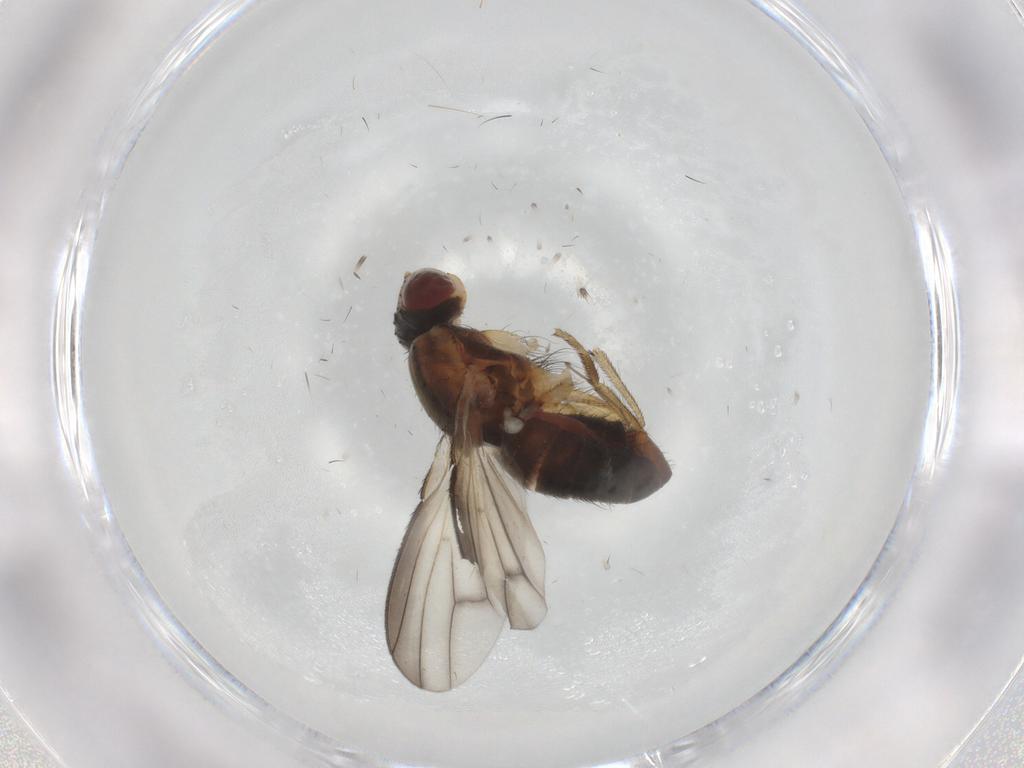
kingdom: Animalia
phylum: Arthropoda
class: Insecta
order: Diptera
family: Heleomyzidae
